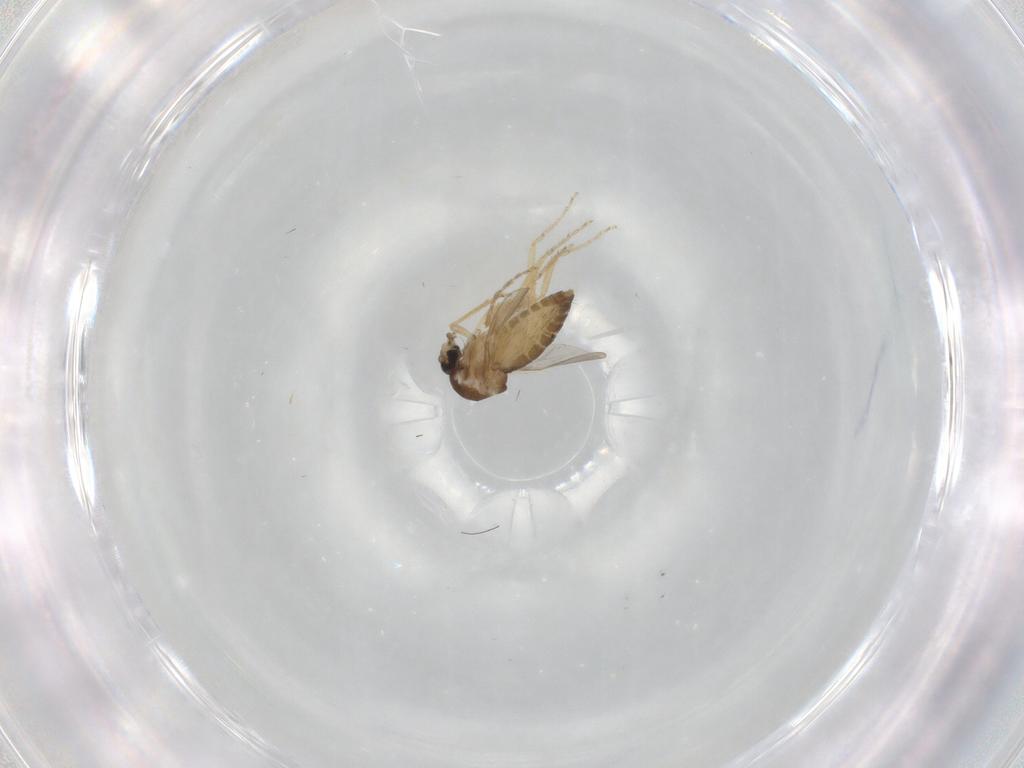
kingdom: Animalia
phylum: Arthropoda
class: Insecta
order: Diptera
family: Ceratopogonidae
